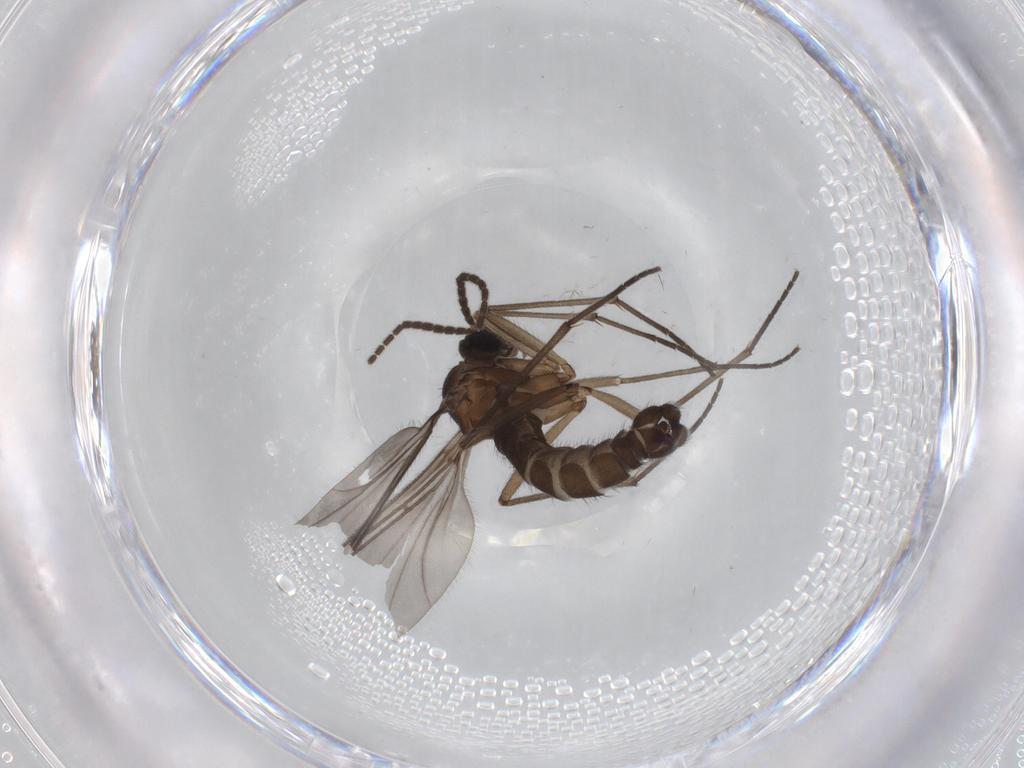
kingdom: Animalia
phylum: Arthropoda
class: Insecta
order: Diptera
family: Sciaridae
